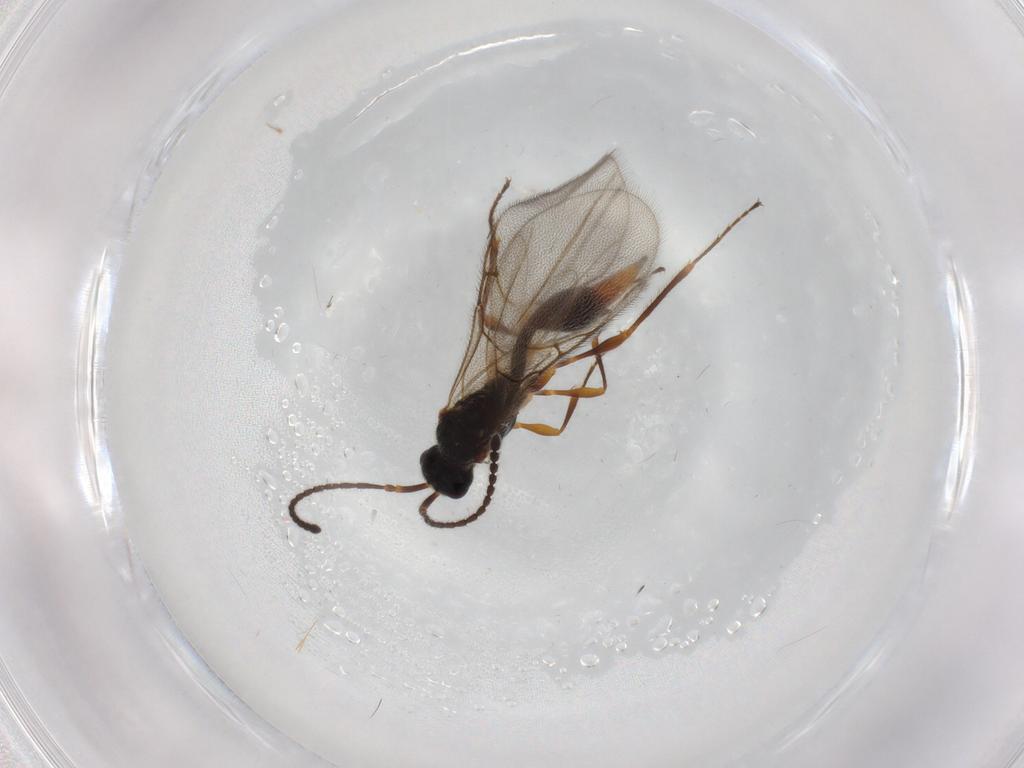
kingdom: Animalia
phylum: Arthropoda
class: Insecta
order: Hymenoptera
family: Diapriidae
